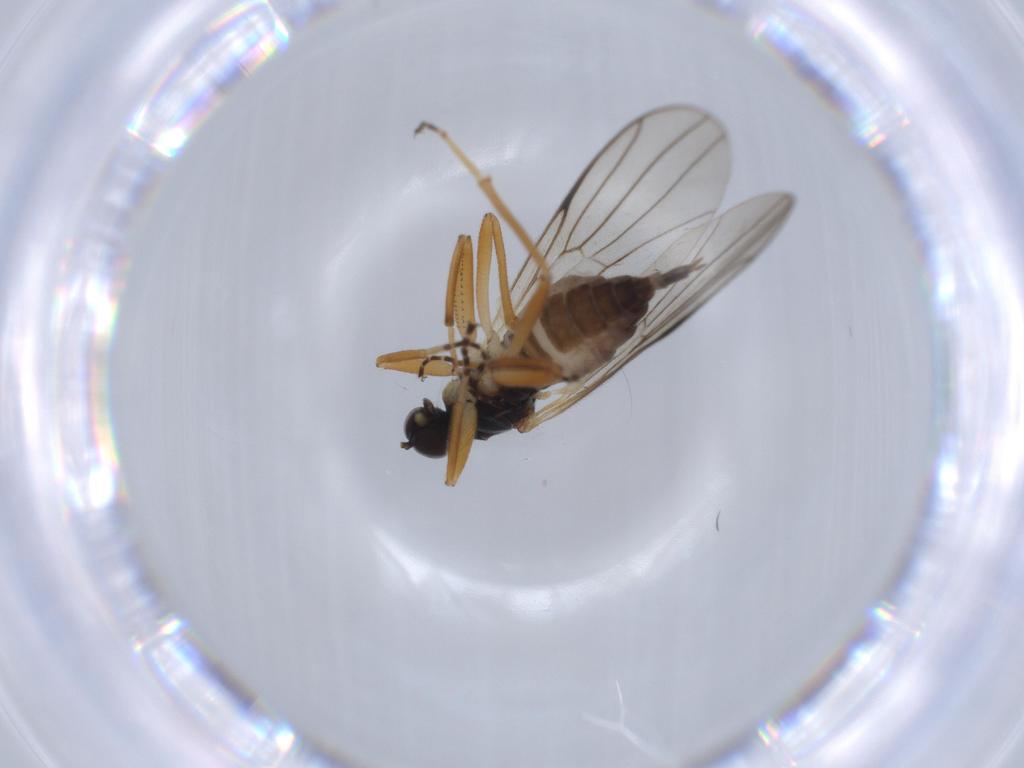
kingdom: Animalia
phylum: Arthropoda
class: Insecta
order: Diptera
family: Hybotidae
